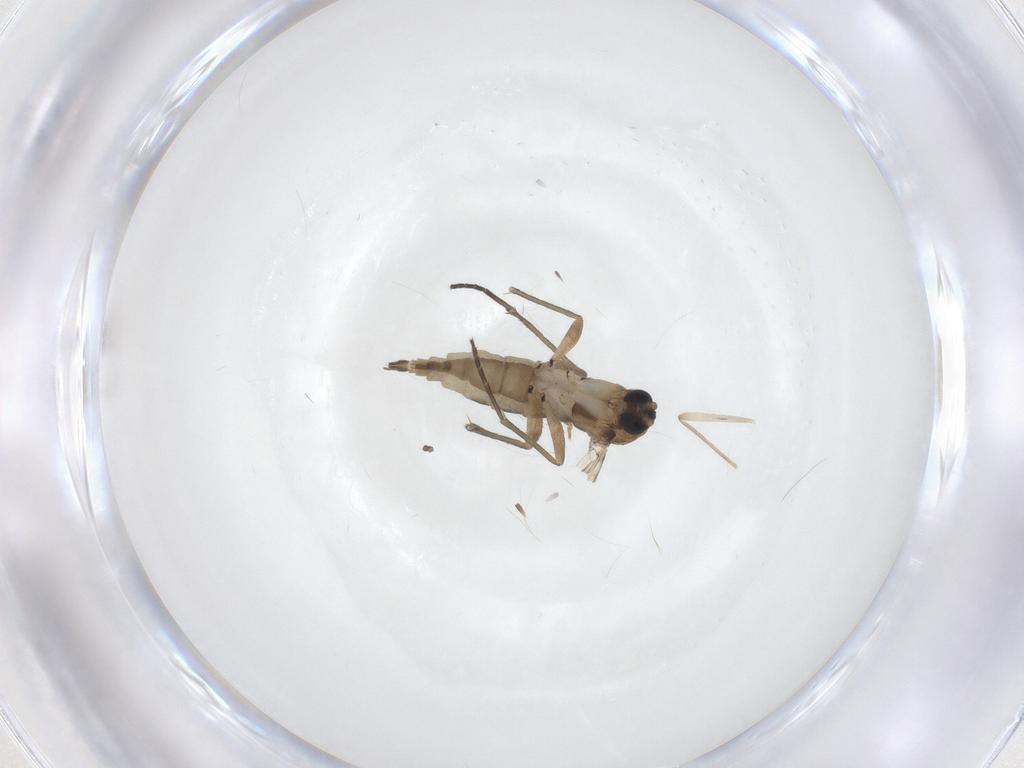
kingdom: Animalia
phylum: Arthropoda
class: Insecta
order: Diptera
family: Sciaridae
